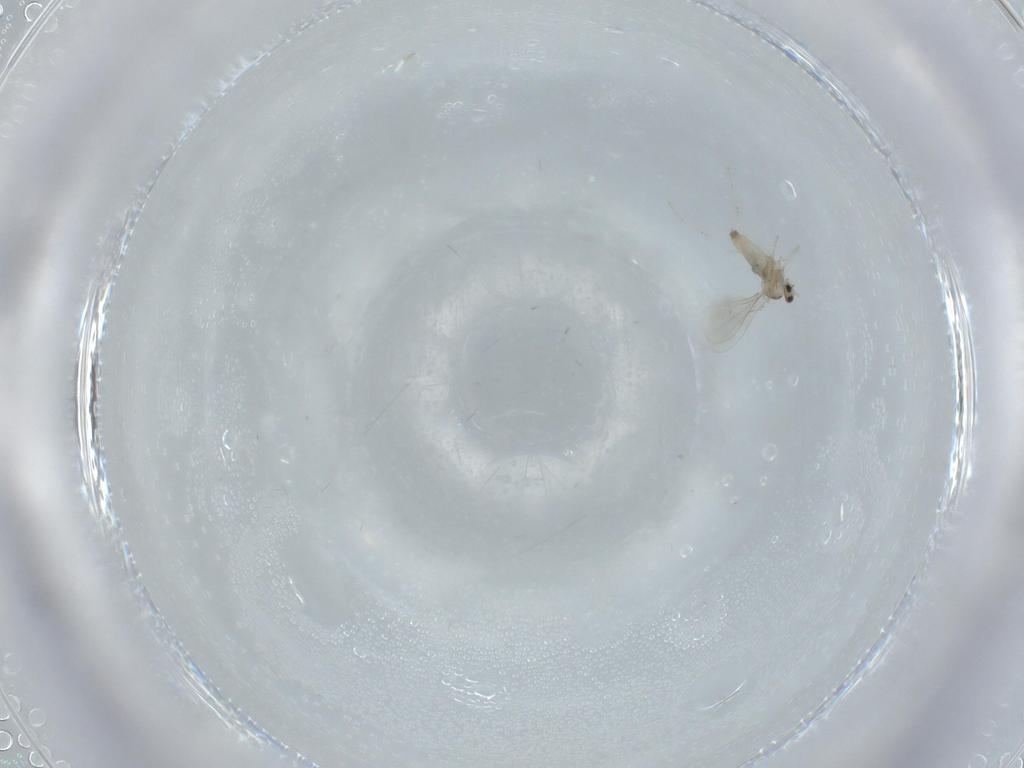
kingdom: Animalia
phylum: Arthropoda
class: Insecta
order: Diptera
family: Cecidomyiidae
